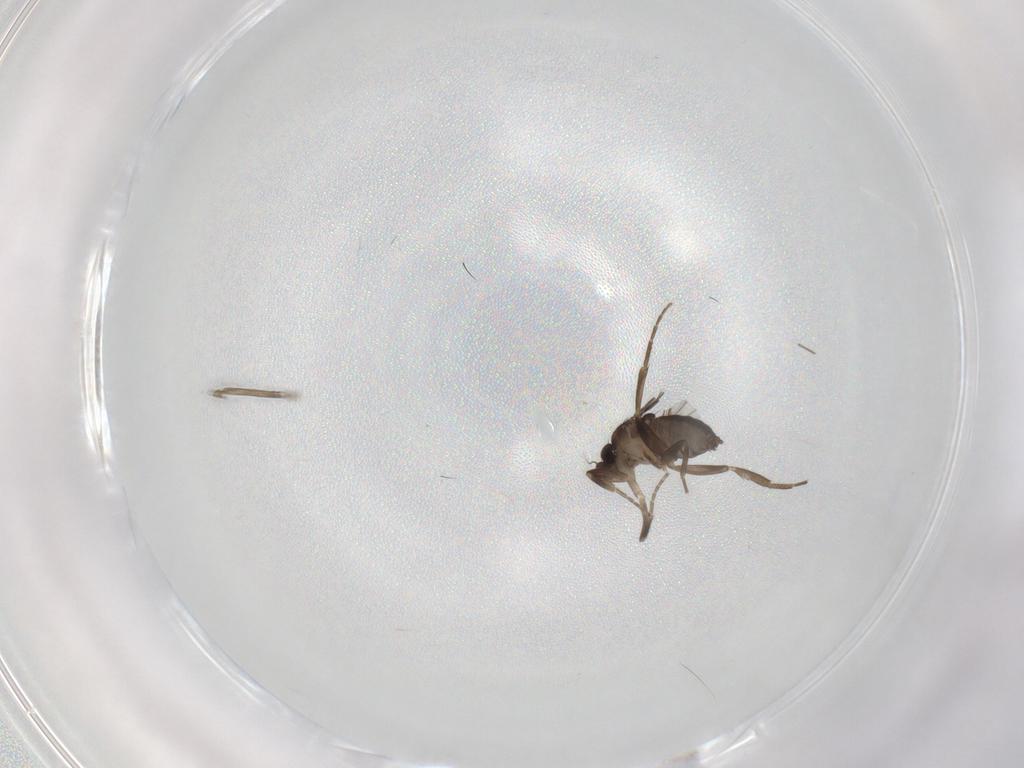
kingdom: Animalia
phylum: Arthropoda
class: Insecta
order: Diptera
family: Phoridae
